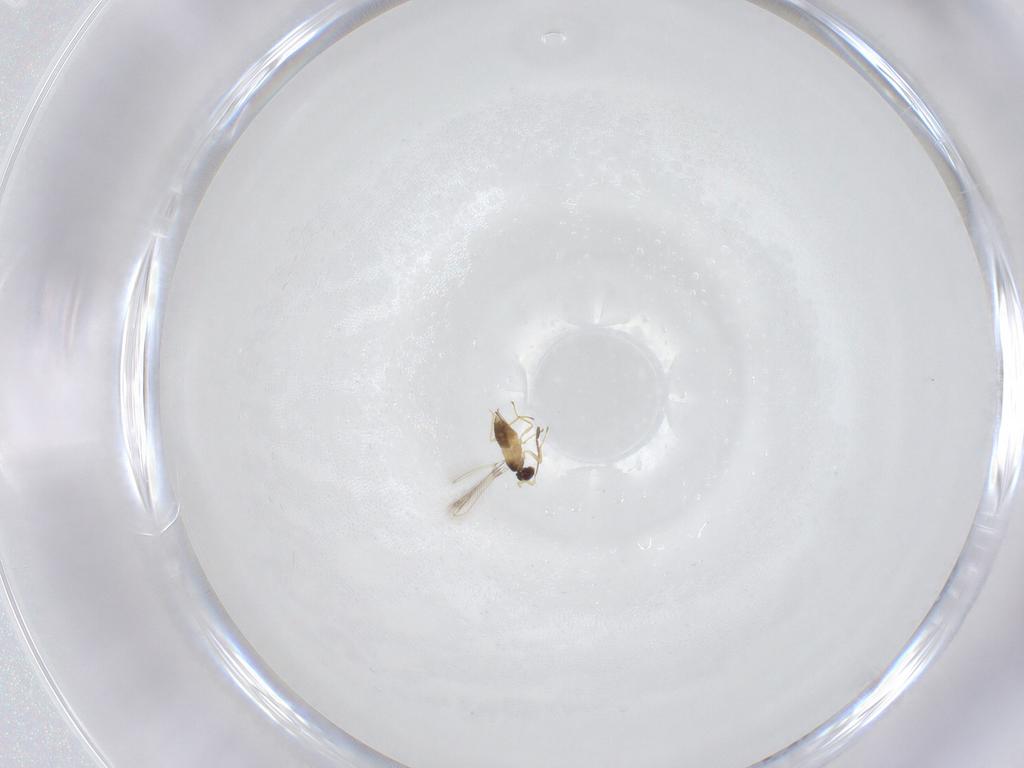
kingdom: Animalia
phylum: Arthropoda
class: Insecta
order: Hymenoptera
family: Mymaridae
